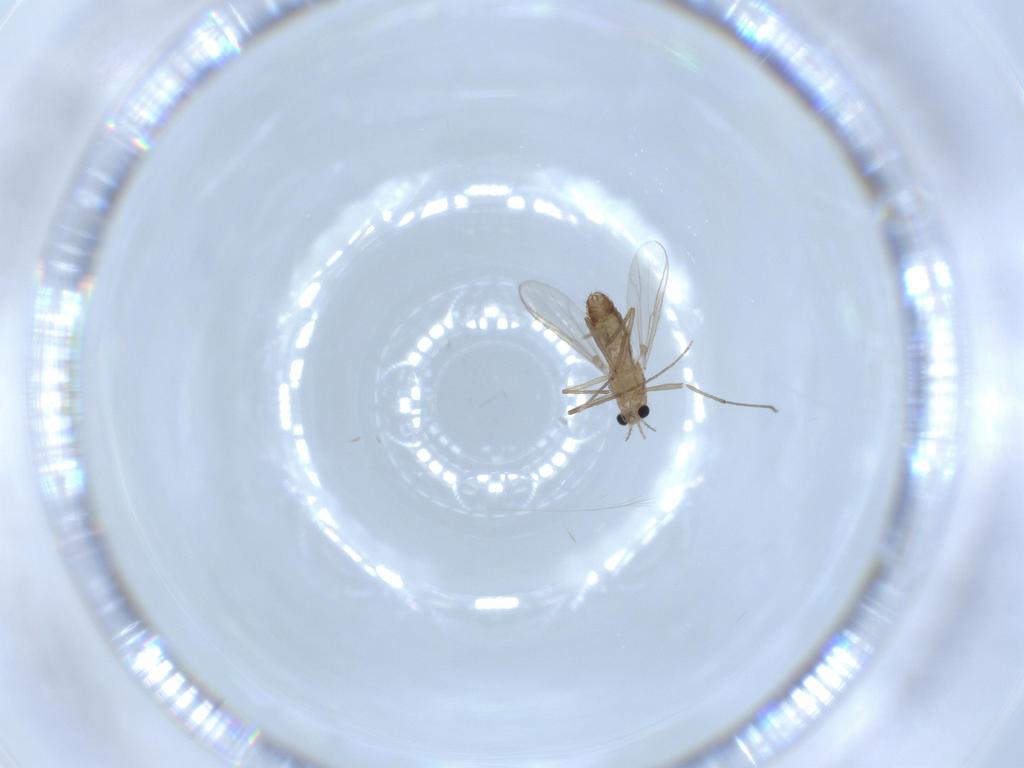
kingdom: Animalia
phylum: Arthropoda
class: Insecta
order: Diptera
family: Chironomidae
